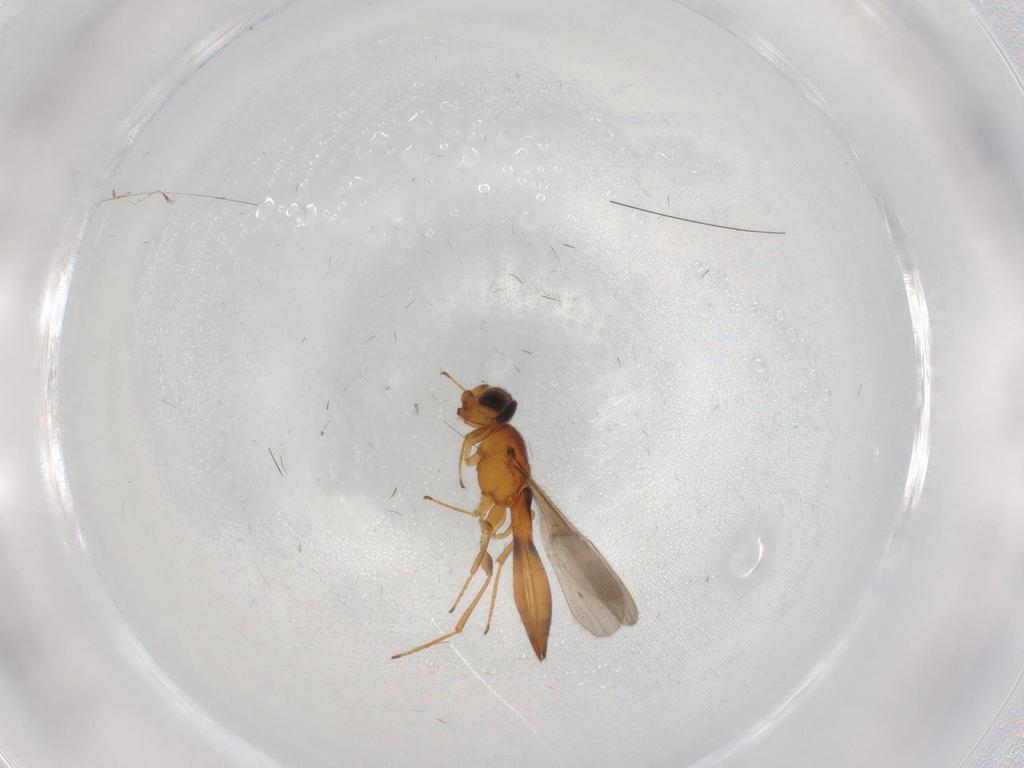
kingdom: Animalia
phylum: Arthropoda
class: Insecta
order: Hymenoptera
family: Scelionidae
